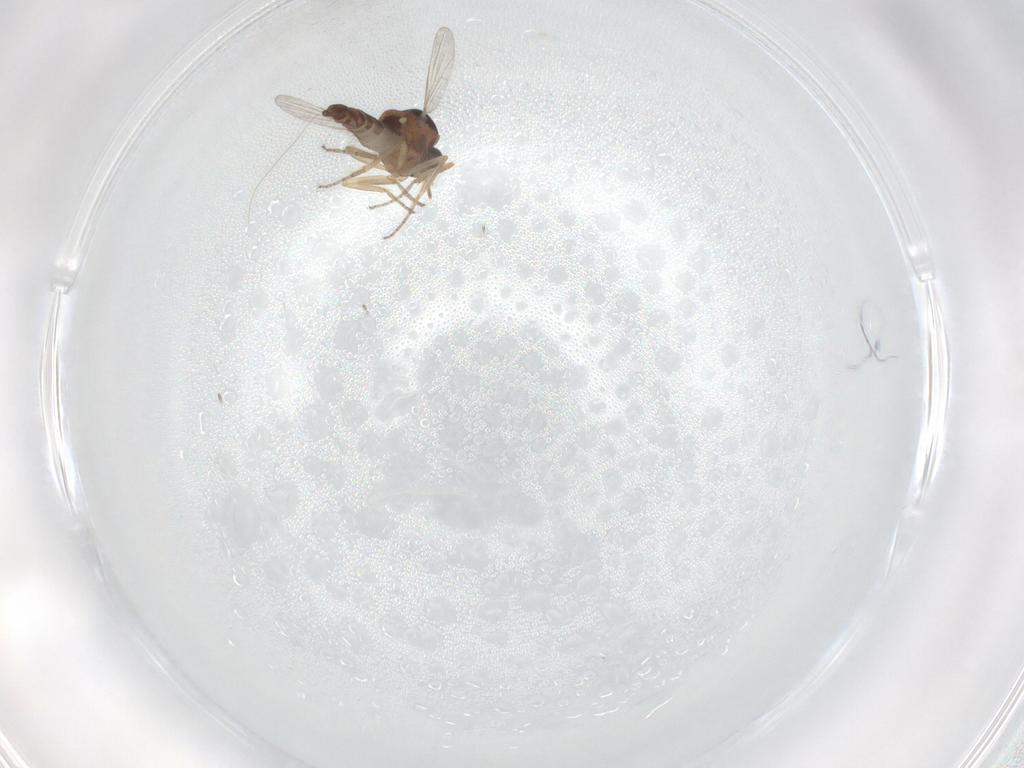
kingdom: Animalia
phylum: Arthropoda
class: Insecta
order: Diptera
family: Ceratopogonidae
